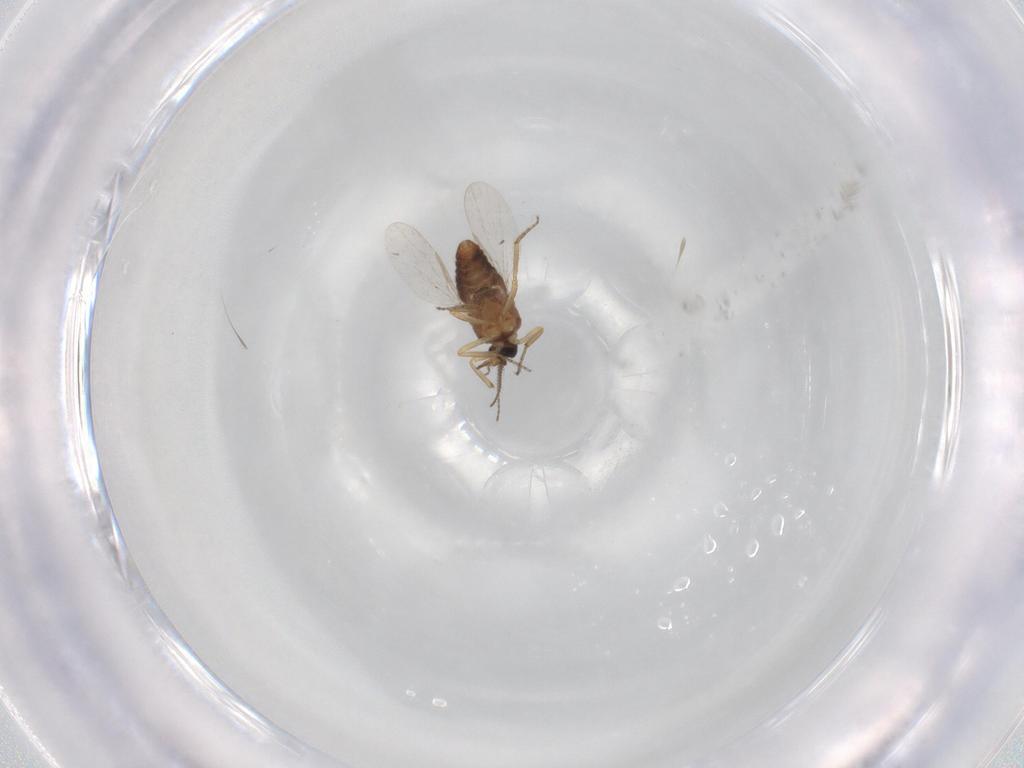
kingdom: Animalia
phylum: Arthropoda
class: Insecta
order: Diptera
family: Ceratopogonidae
